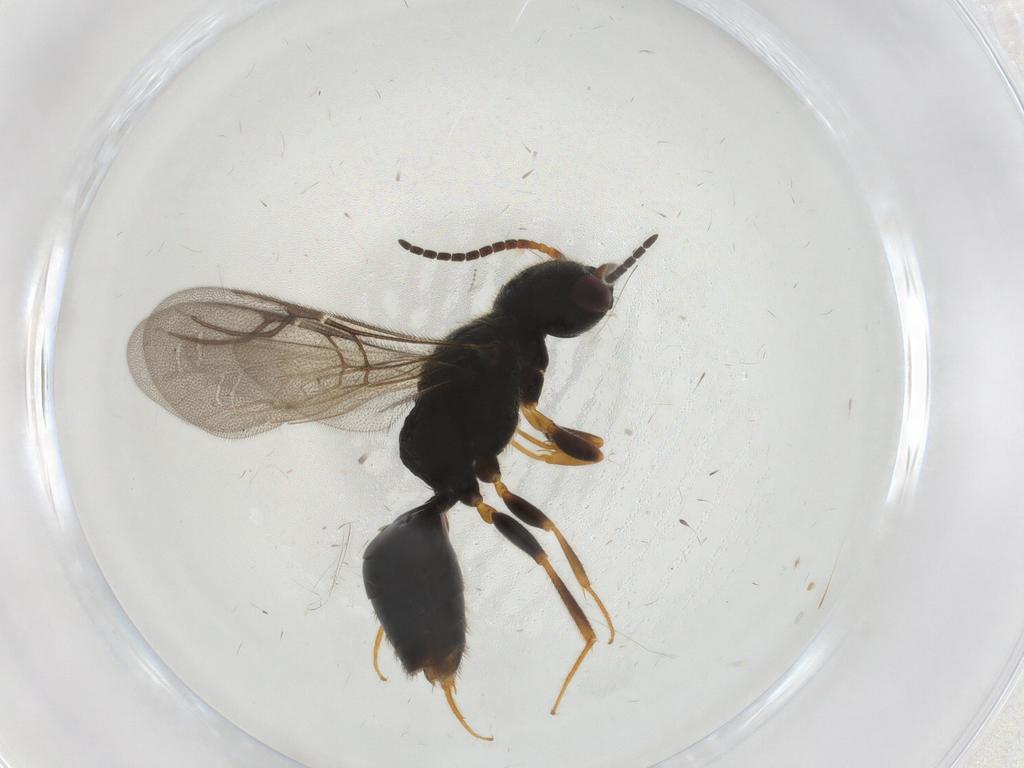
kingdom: Animalia
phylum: Arthropoda
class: Insecta
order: Hymenoptera
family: Bethylidae
